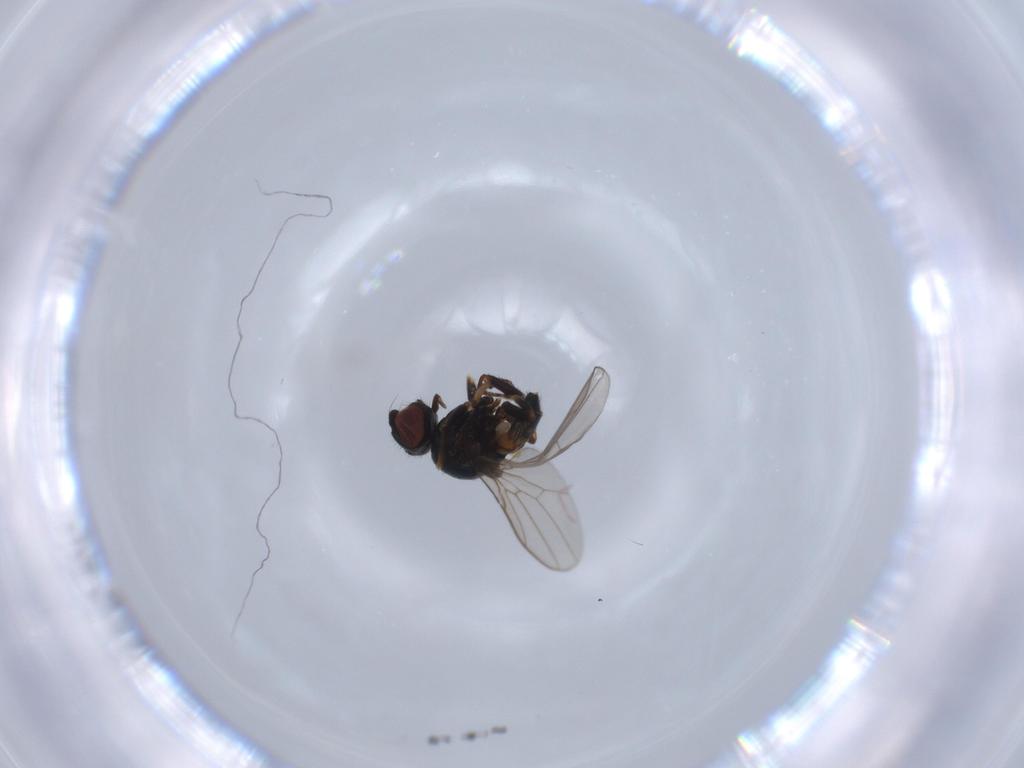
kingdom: Animalia
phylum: Arthropoda
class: Insecta
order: Diptera
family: Chloropidae
